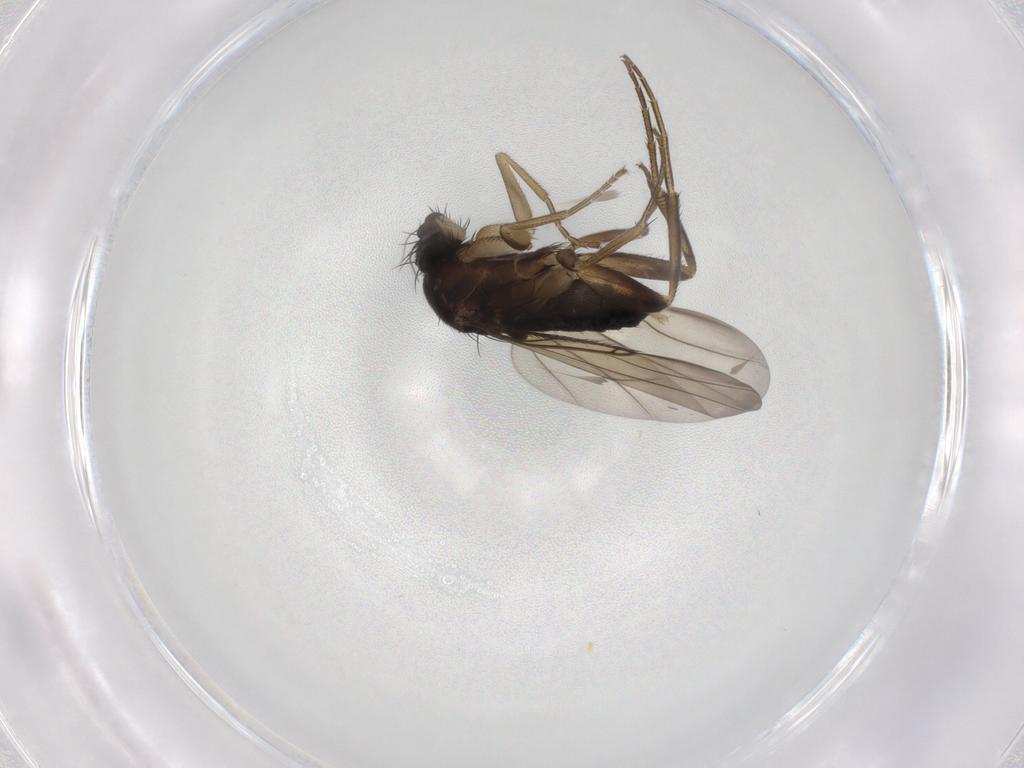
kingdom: Animalia
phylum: Arthropoda
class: Insecta
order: Diptera
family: Phoridae
